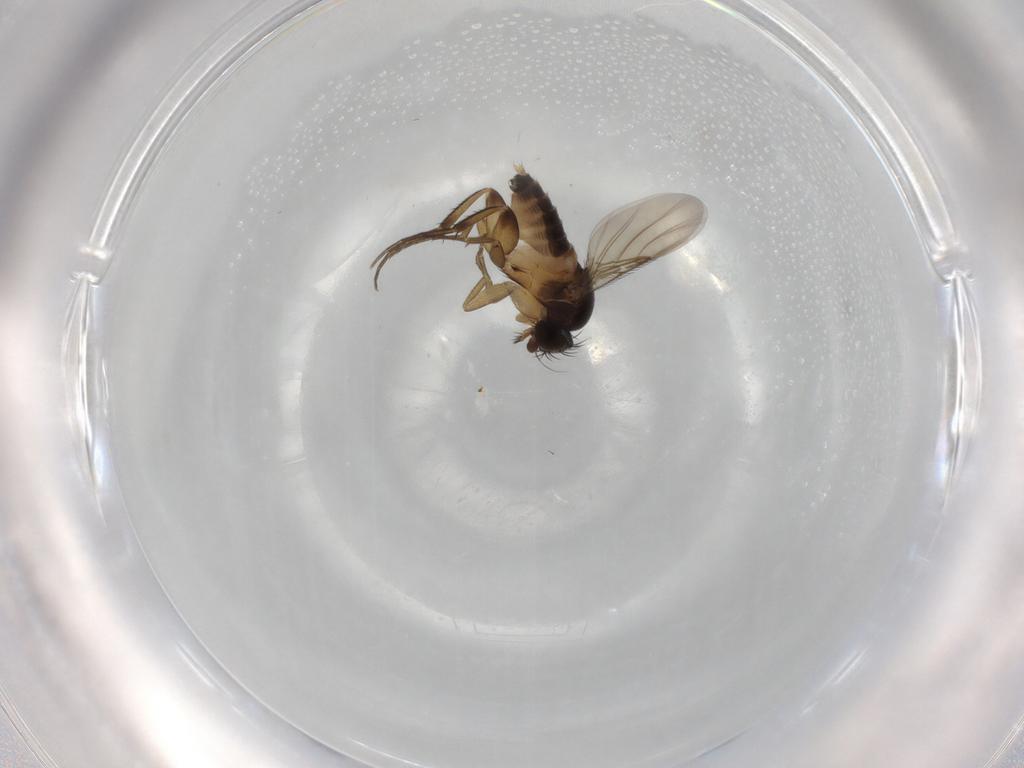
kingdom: Animalia
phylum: Arthropoda
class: Insecta
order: Diptera
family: Phoridae
